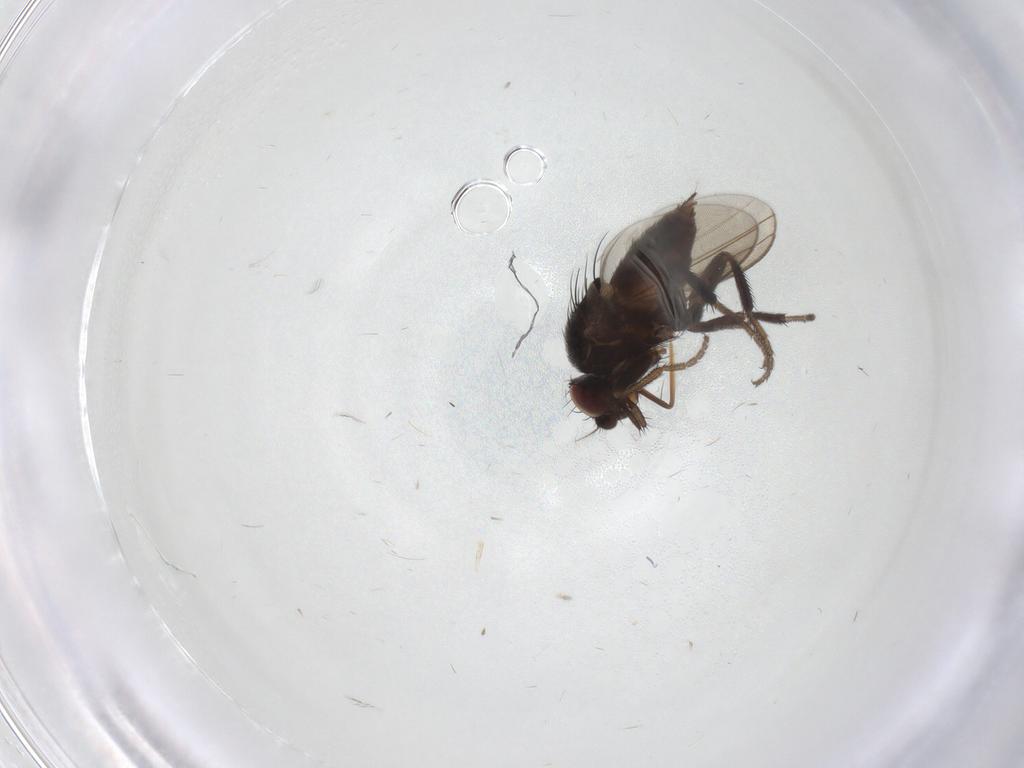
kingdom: Animalia
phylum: Arthropoda
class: Insecta
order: Diptera
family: Milichiidae
